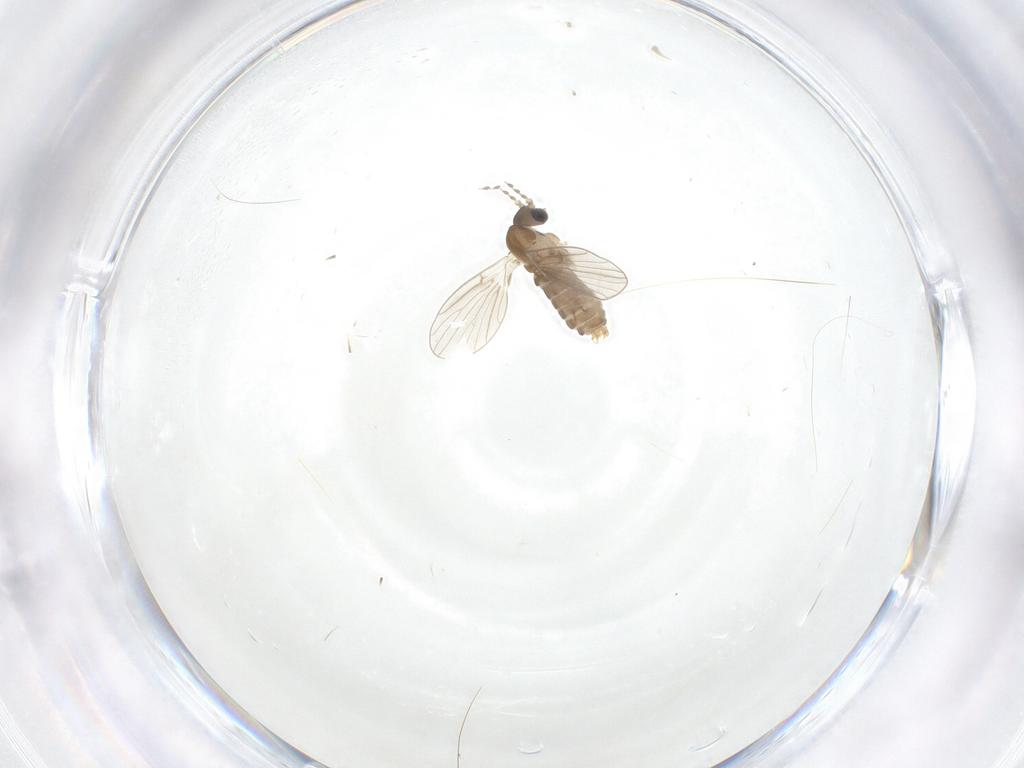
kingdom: Animalia
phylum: Arthropoda
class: Insecta
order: Diptera
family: Psychodidae
